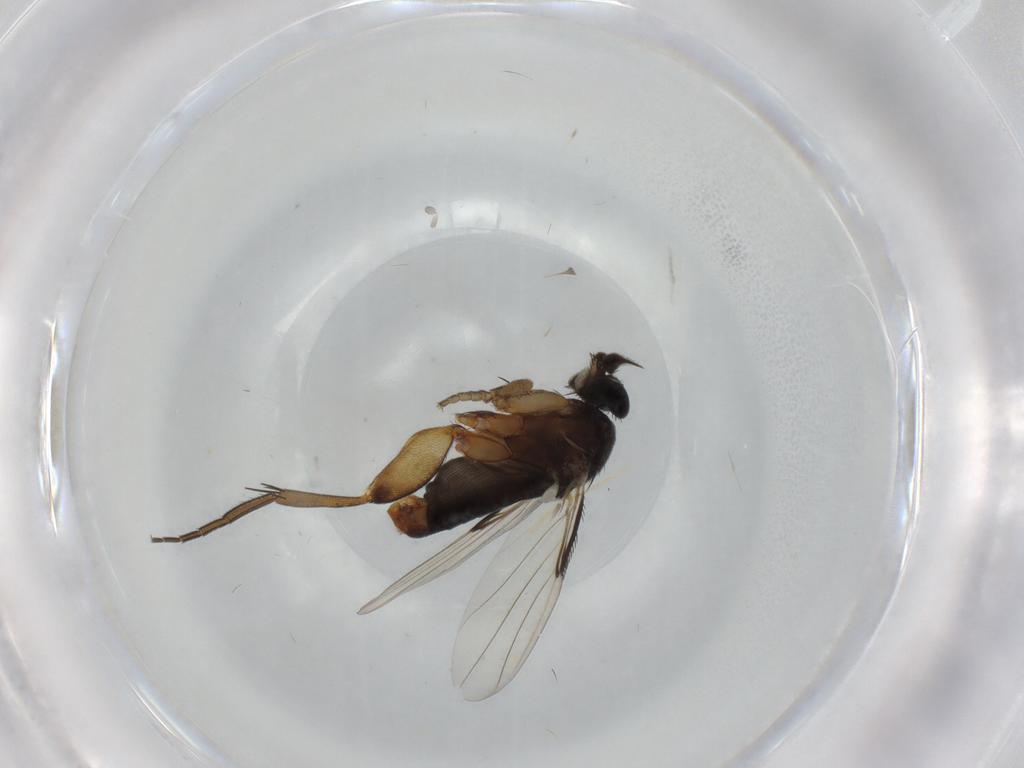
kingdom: Animalia
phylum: Arthropoda
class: Insecta
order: Diptera
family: Phoridae
